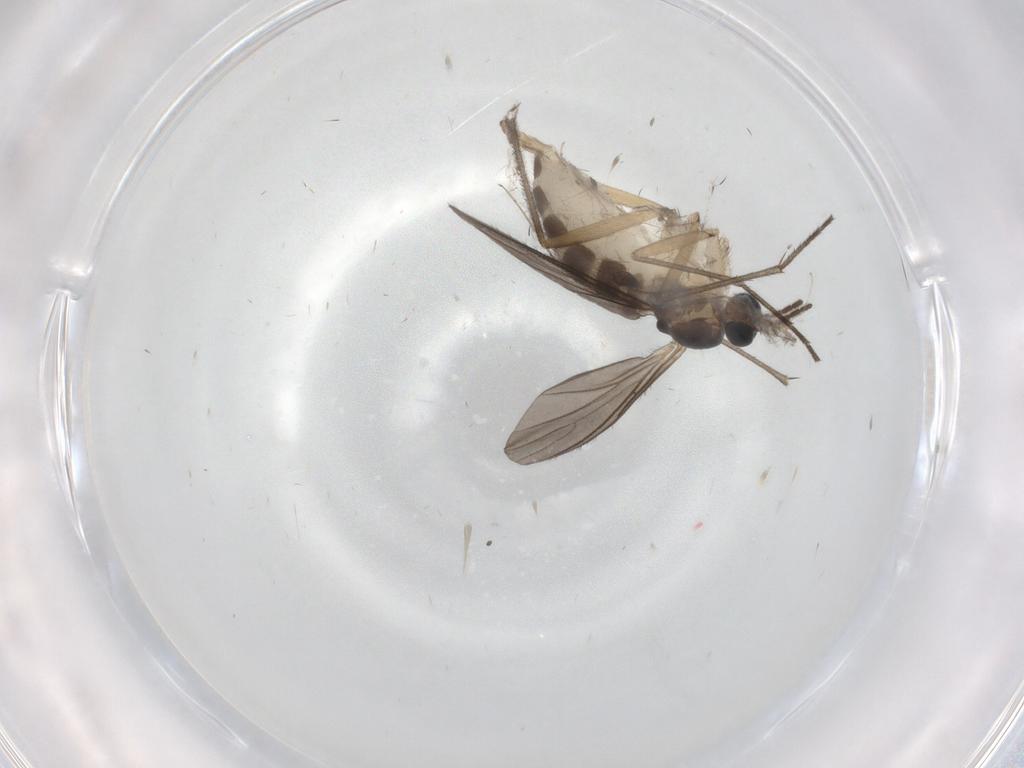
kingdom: Animalia
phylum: Arthropoda
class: Insecta
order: Diptera
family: Sciaridae
